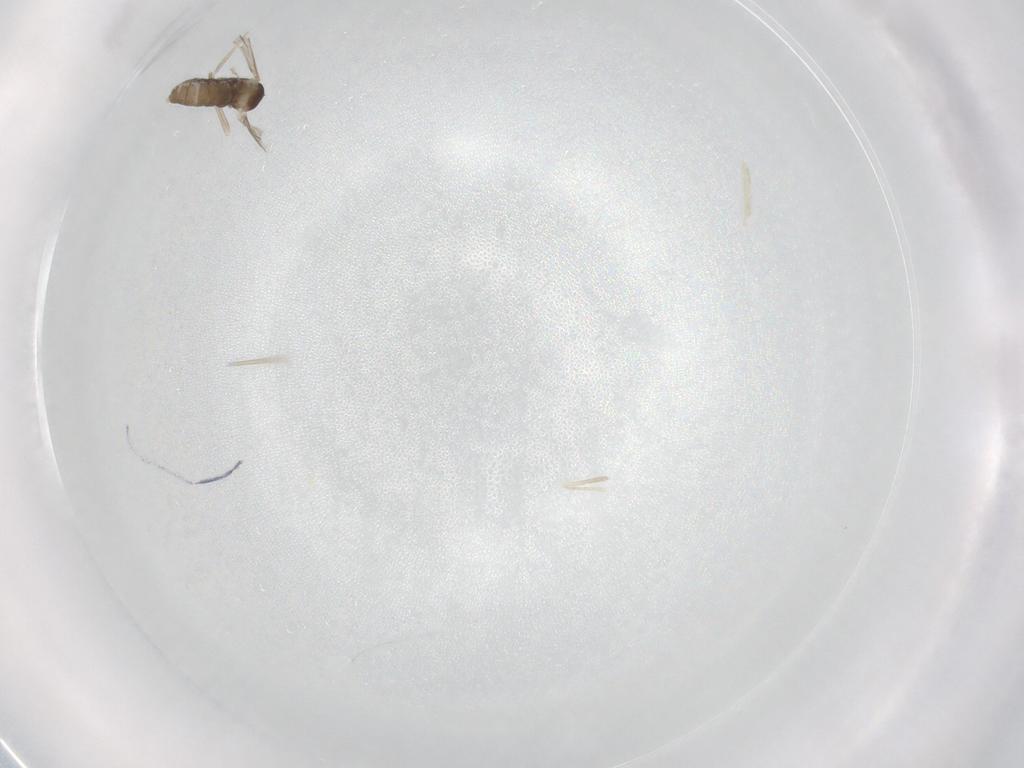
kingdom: Animalia
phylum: Arthropoda
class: Insecta
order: Diptera
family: Cecidomyiidae
